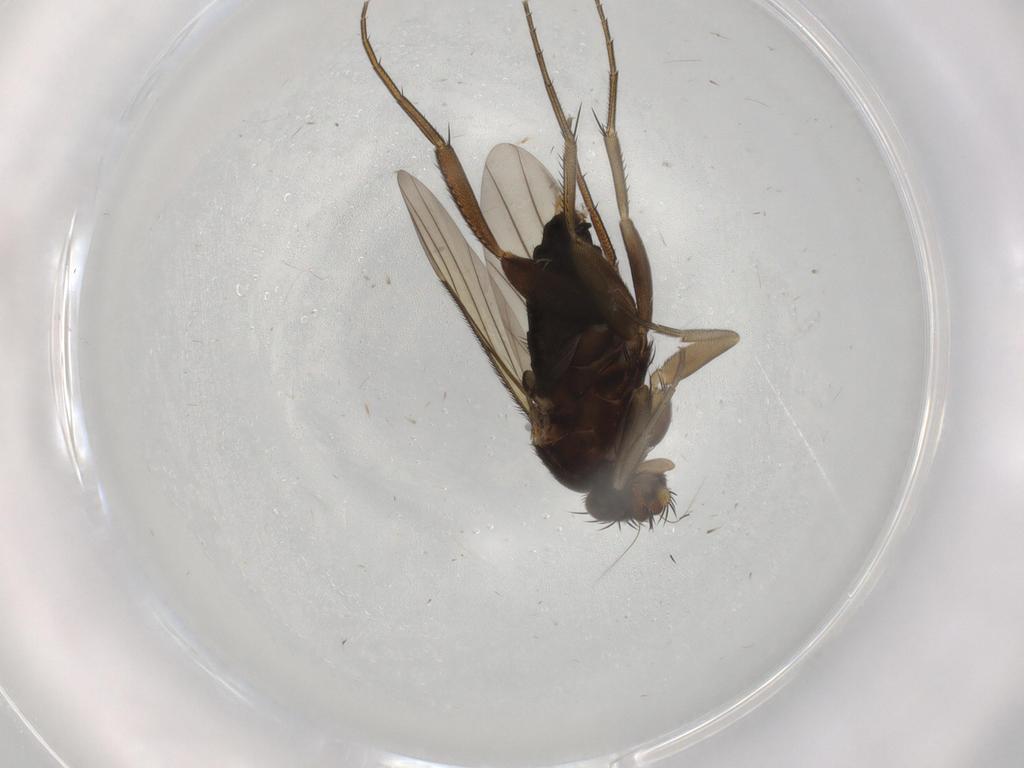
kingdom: Animalia
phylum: Arthropoda
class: Insecta
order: Diptera
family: Phoridae
